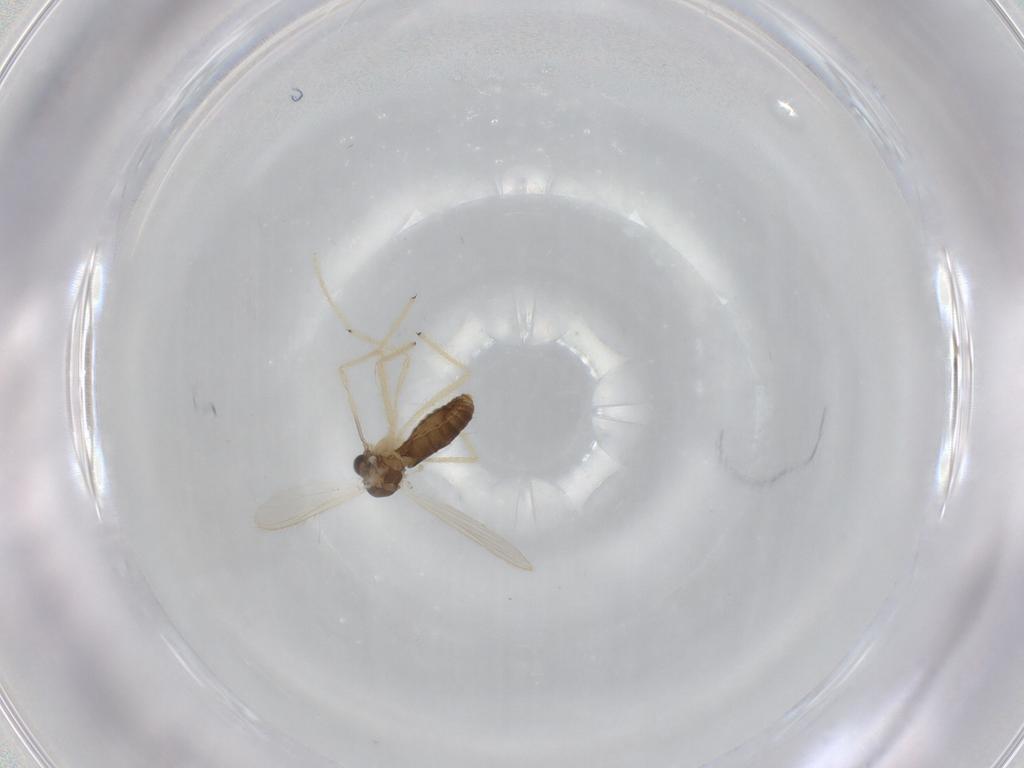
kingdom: Animalia
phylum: Arthropoda
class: Insecta
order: Diptera
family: Chironomidae
